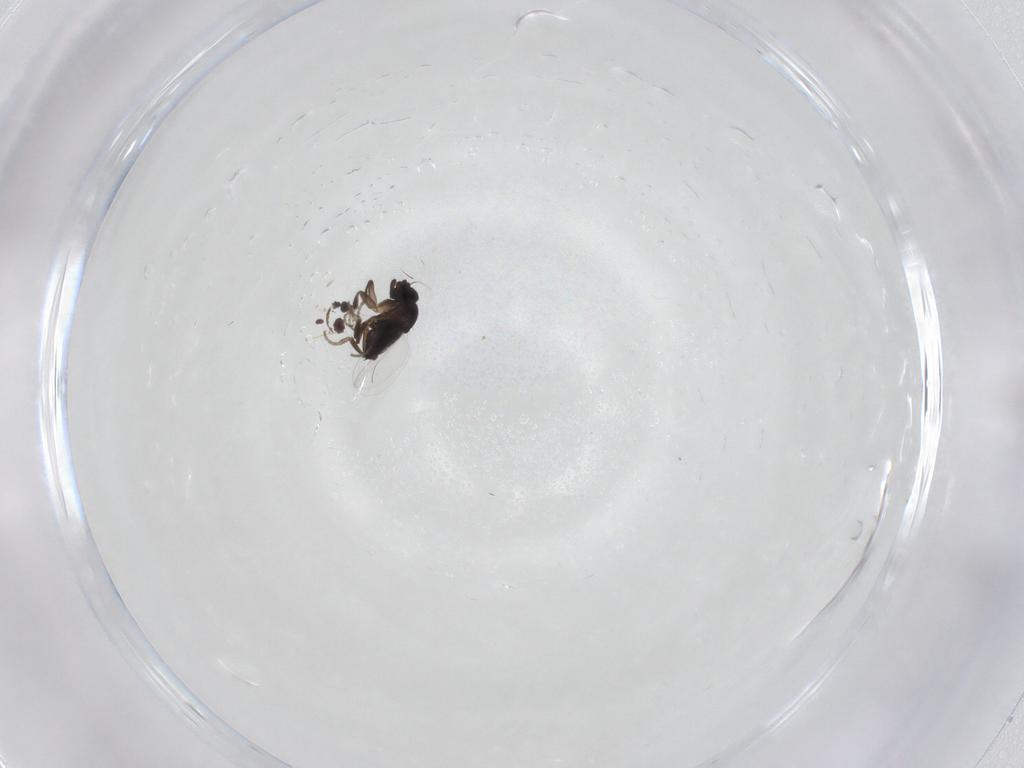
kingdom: Animalia
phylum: Arthropoda
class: Insecta
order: Diptera
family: Phoridae
